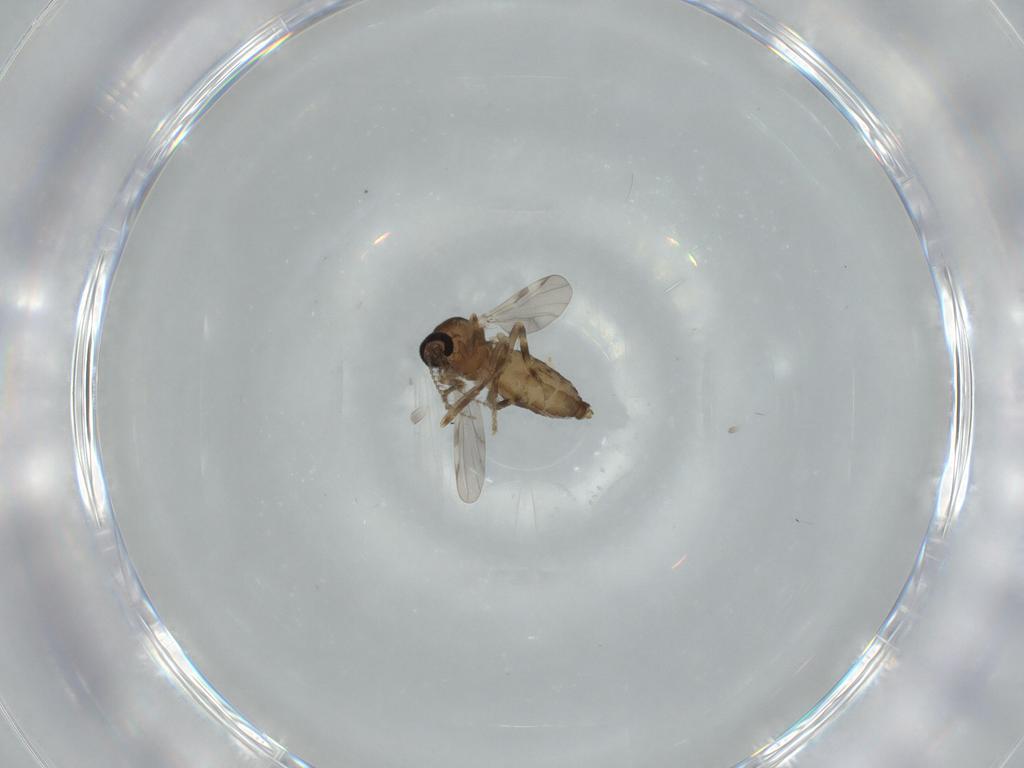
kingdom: Animalia
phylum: Arthropoda
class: Insecta
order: Diptera
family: Ceratopogonidae
